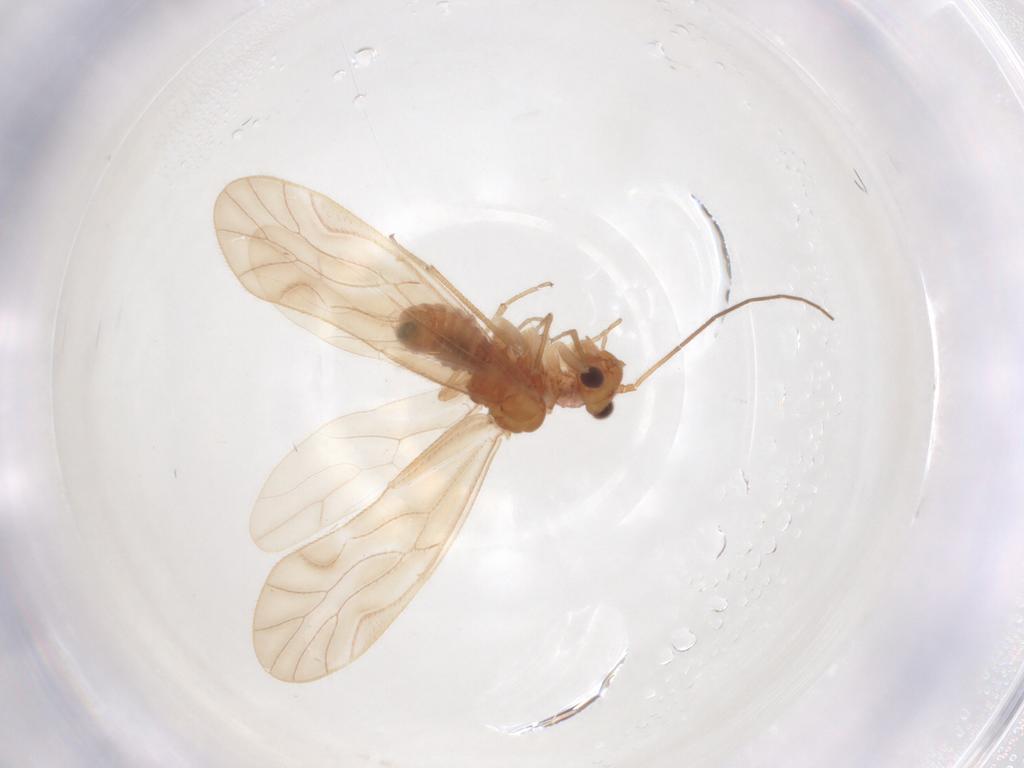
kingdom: Animalia
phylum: Arthropoda
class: Insecta
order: Psocodea
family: Caeciliusidae
